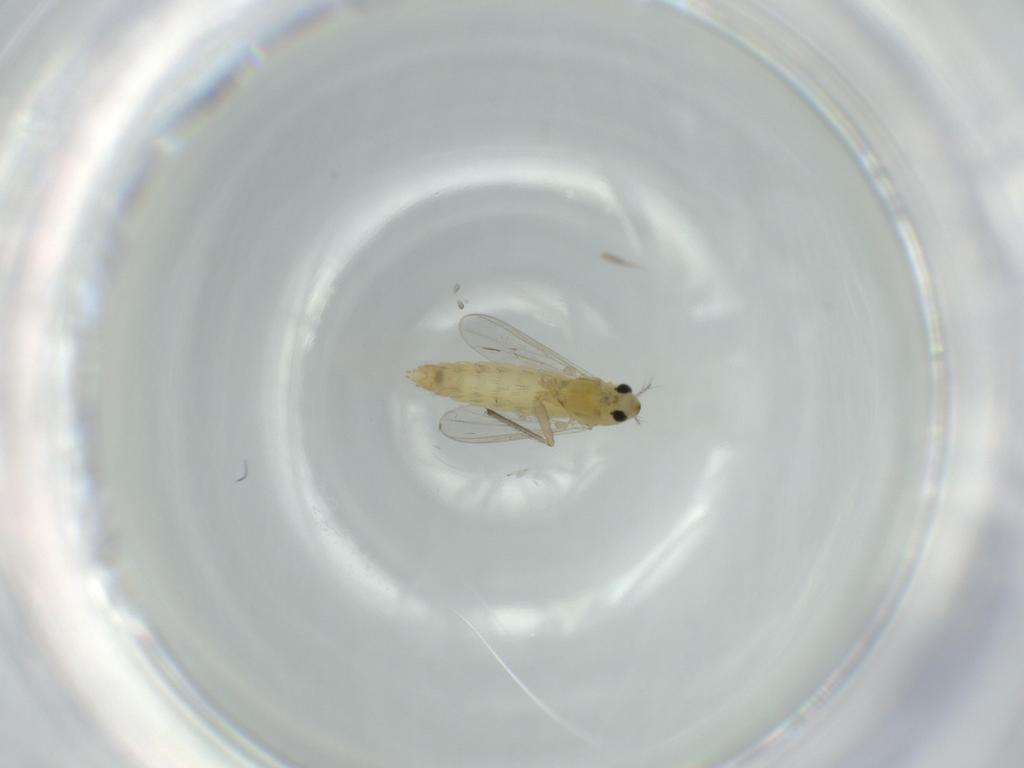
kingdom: Animalia
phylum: Arthropoda
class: Insecta
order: Diptera
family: Chironomidae
